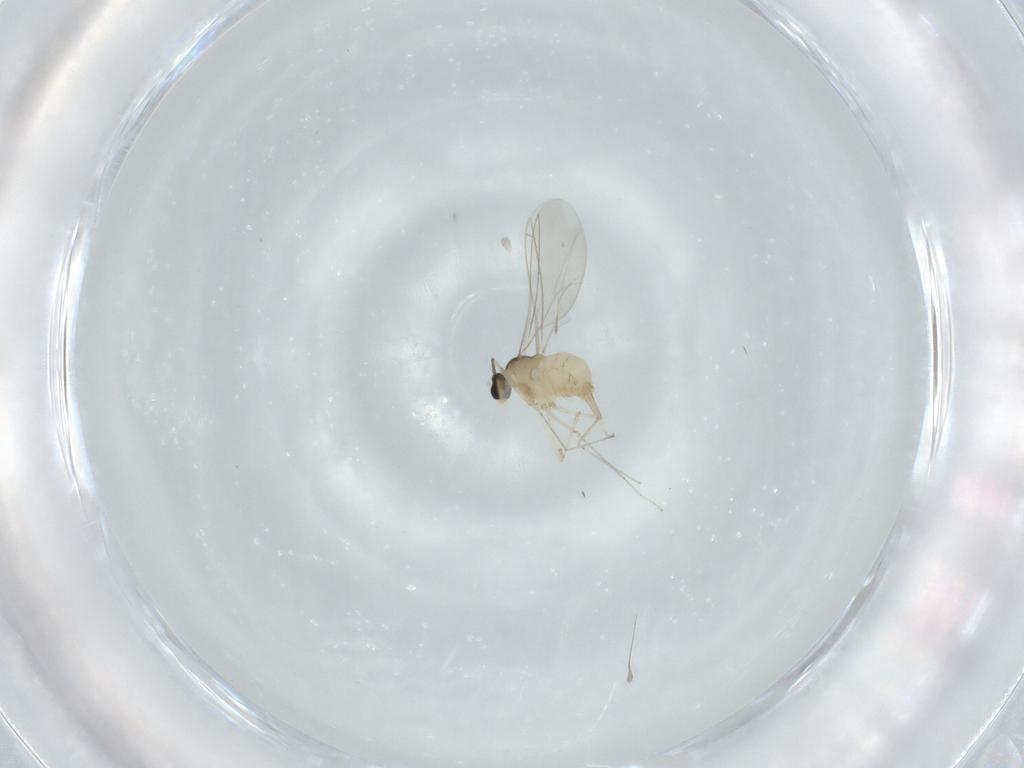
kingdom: Animalia
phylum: Arthropoda
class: Insecta
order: Diptera
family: Cecidomyiidae
